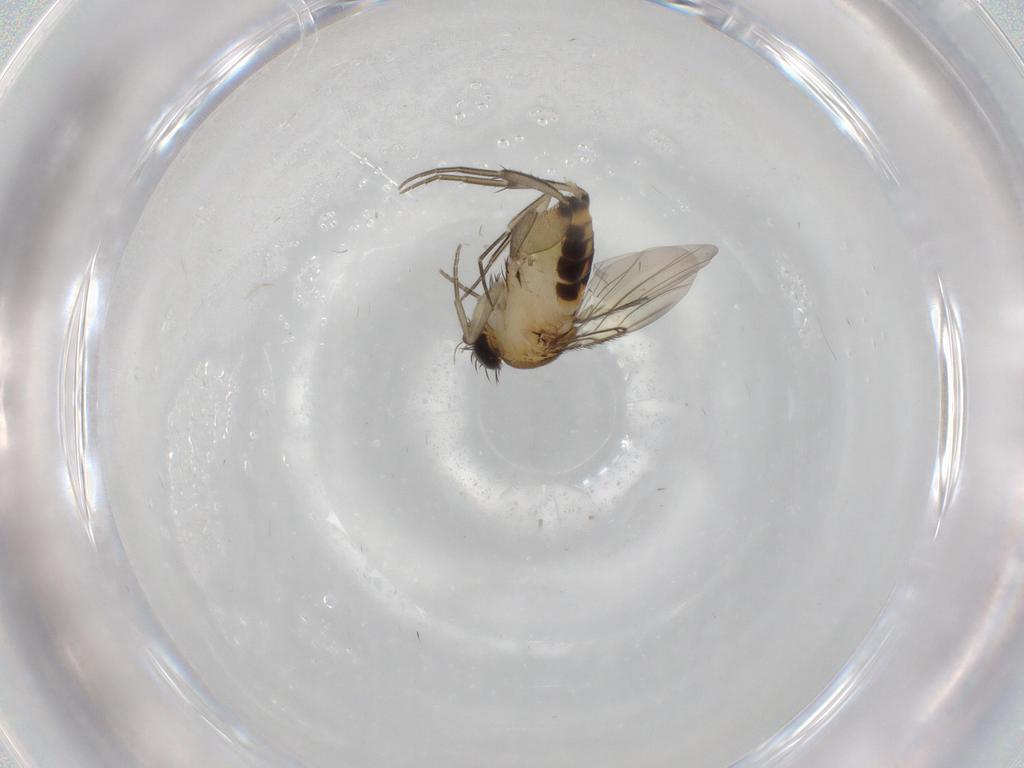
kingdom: Animalia
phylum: Arthropoda
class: Insecta
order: Diptera
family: Phoridae
